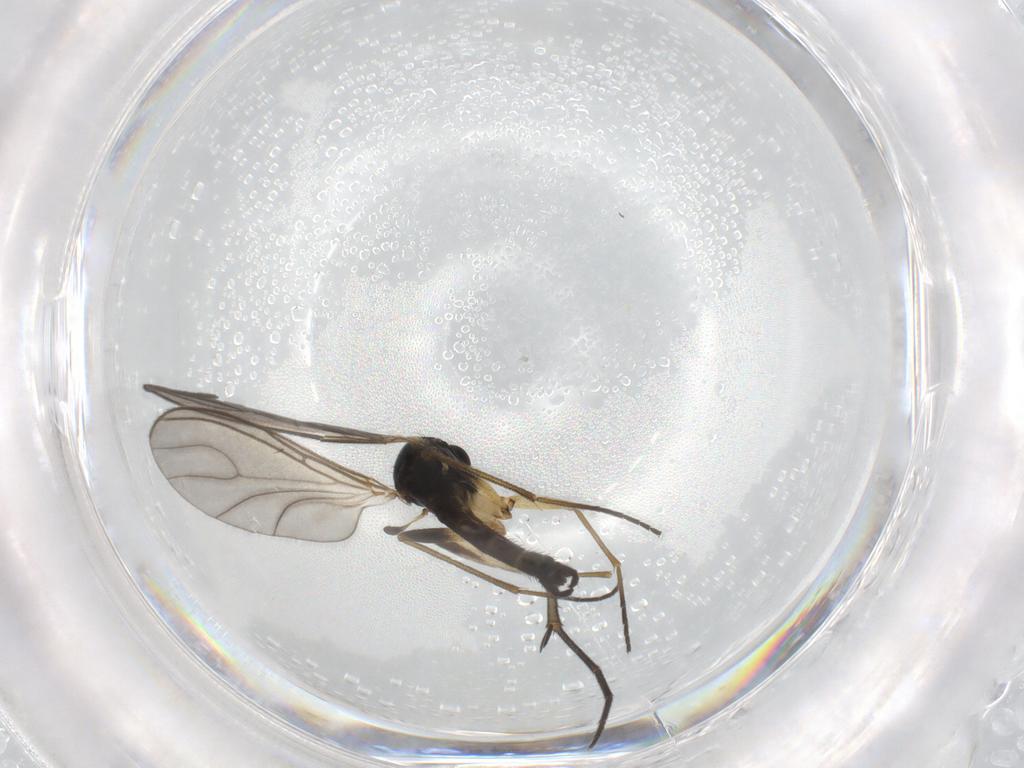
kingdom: Animalia
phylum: Arthropoda
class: Insecta
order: Diptera
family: Sciaridae
